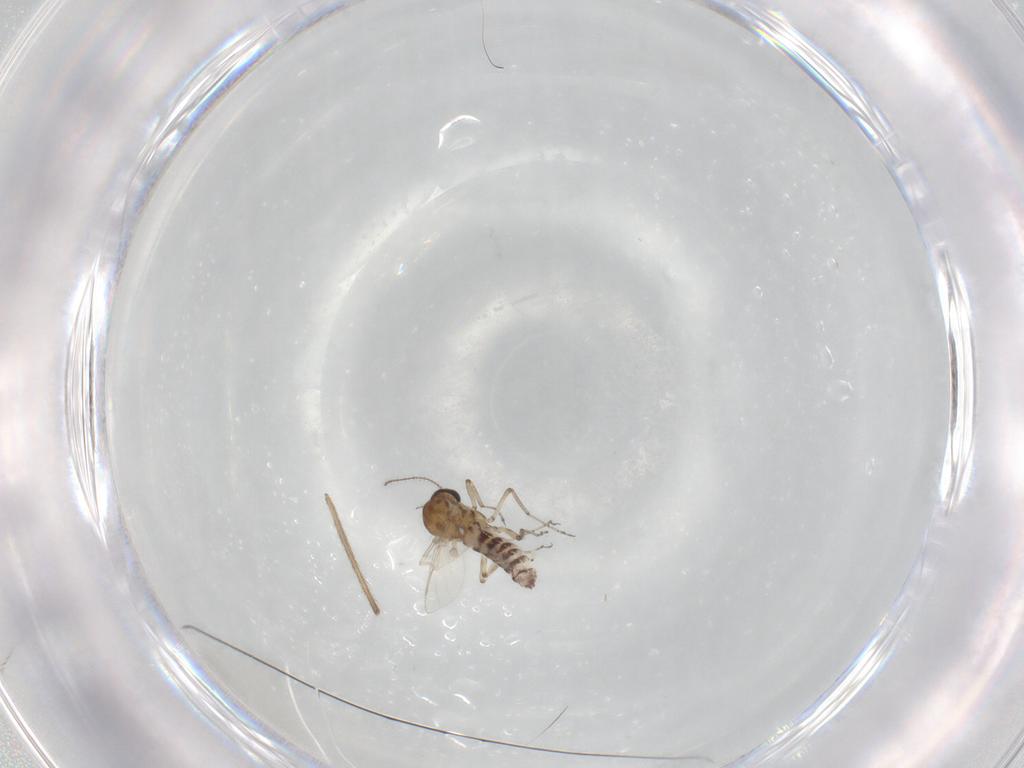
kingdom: Animalia
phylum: Arthropoda
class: Insecta
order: Diptera
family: Ceratopogonidae
